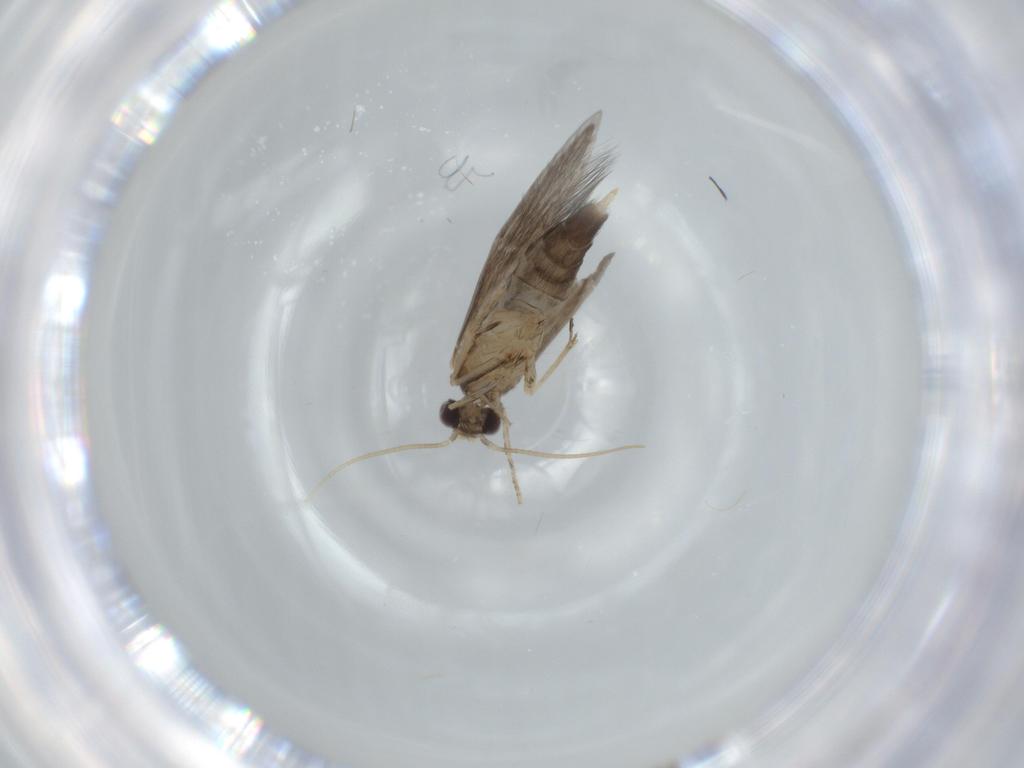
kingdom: Animalia
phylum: Arthropoda
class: Insecta
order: Trichoptera
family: Hydroptilidae
